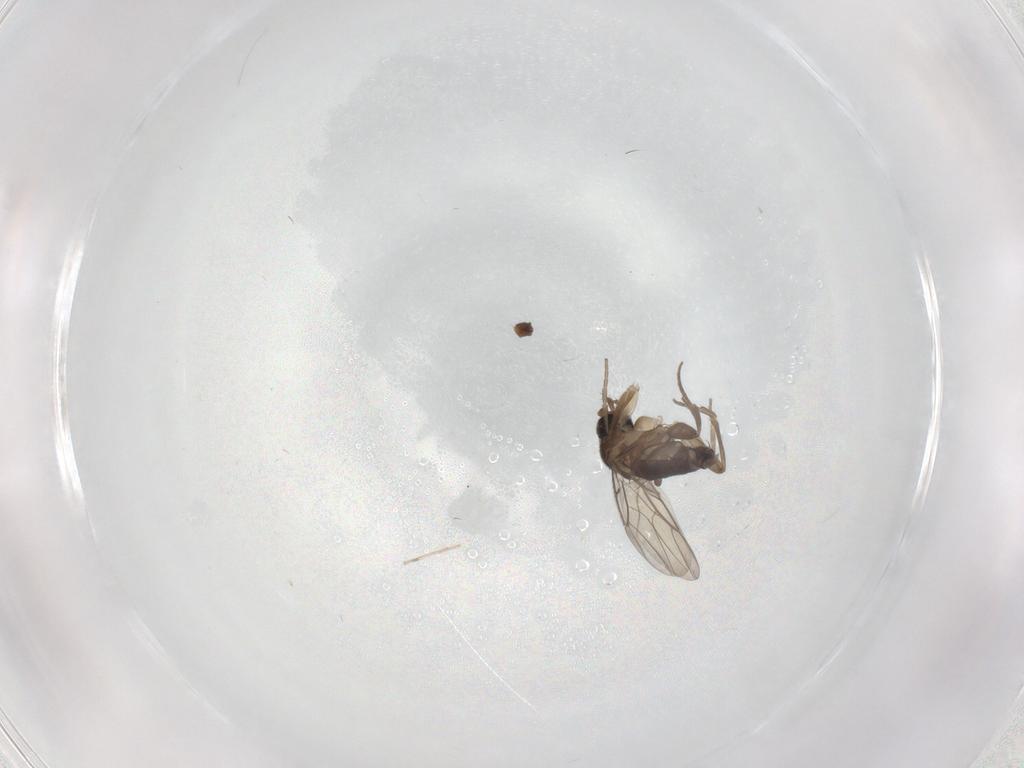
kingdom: Animalia
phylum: Arthropoda
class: Insecta
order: Diptera
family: Phoridae
